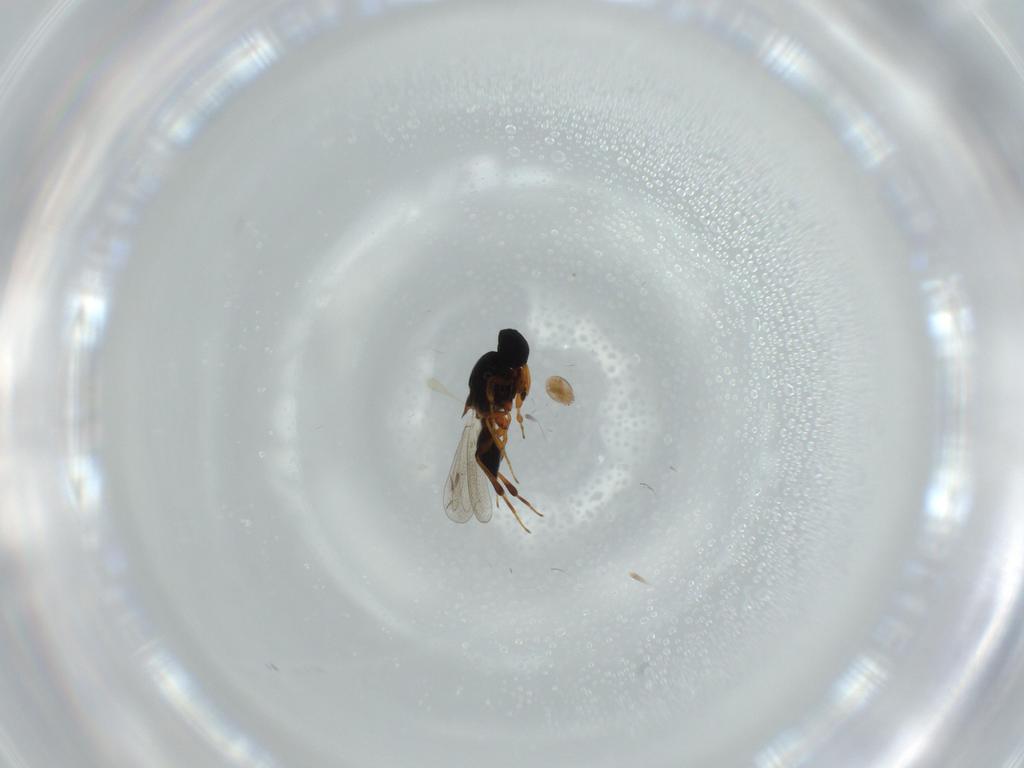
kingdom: Animalia
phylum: Arthropoda
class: Insecta
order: Hymenoptera
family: Platygastridae
